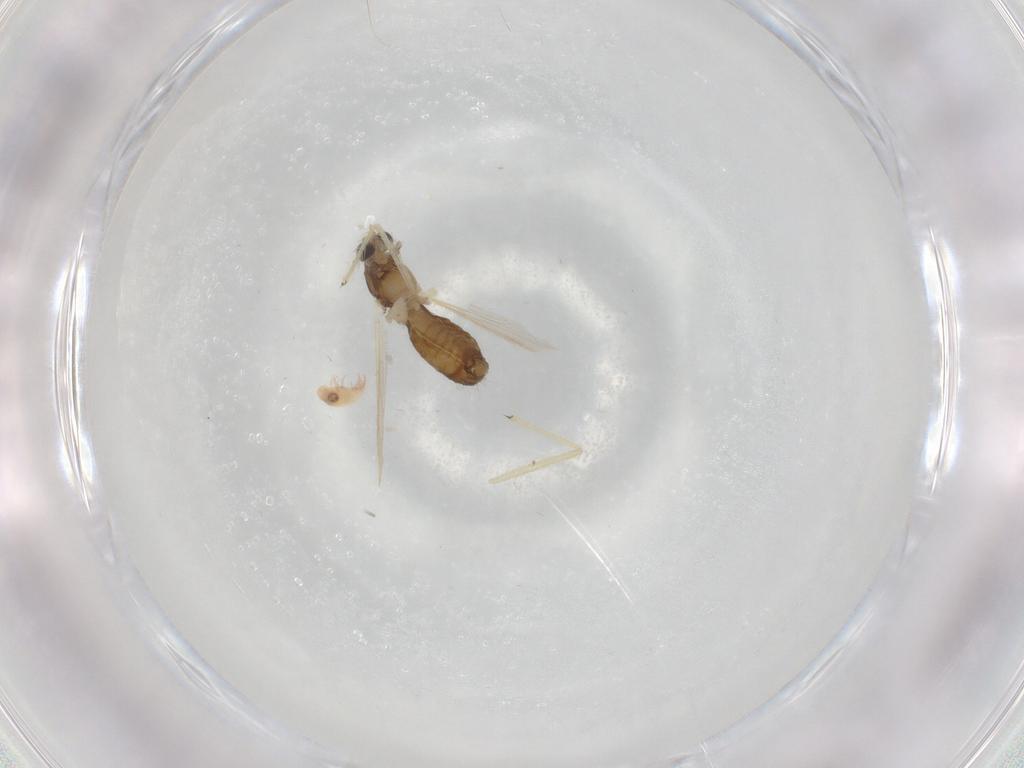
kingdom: Animalia
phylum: Arthropoda
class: Insecta
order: Diptera
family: Chironomidae
